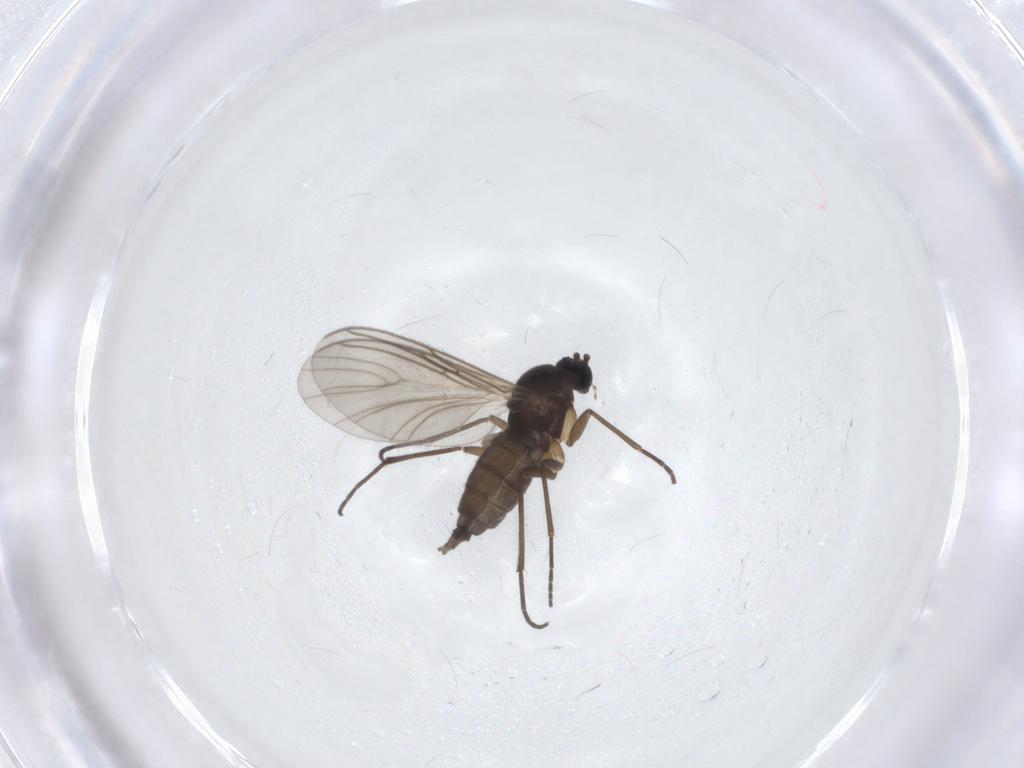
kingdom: Animalia
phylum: Arthropoda
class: Insecta
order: Diptera
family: Sciaridae
